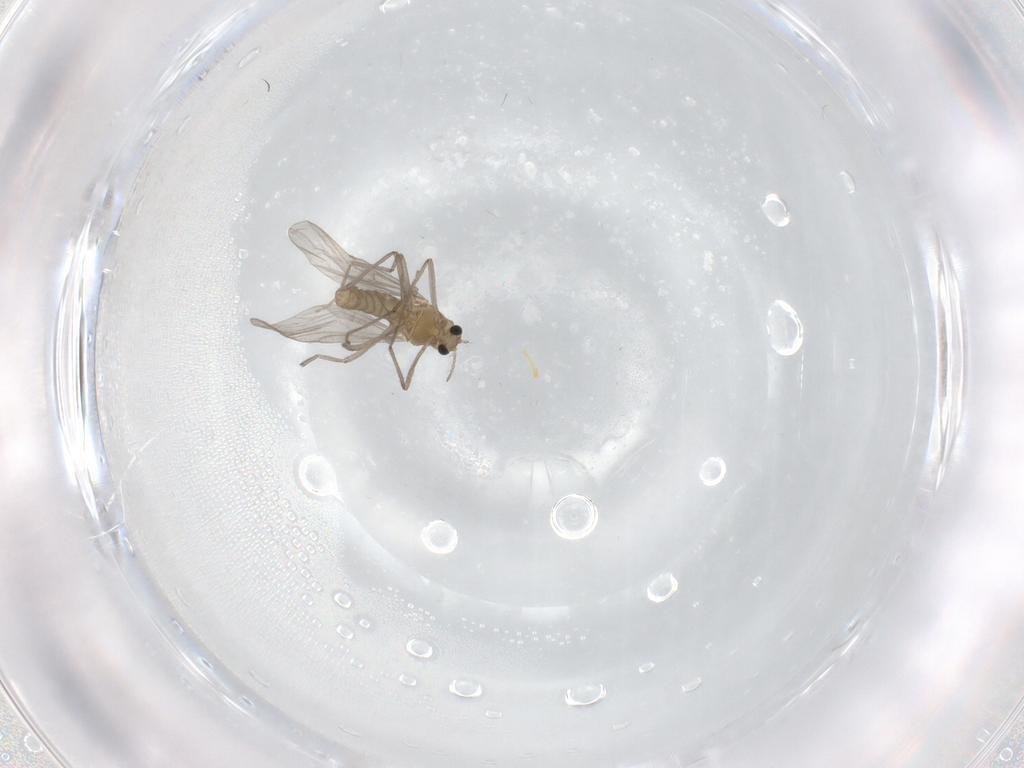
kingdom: Animalia
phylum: Arthropoda
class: Insecta
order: Diptera
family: Chironomidae
